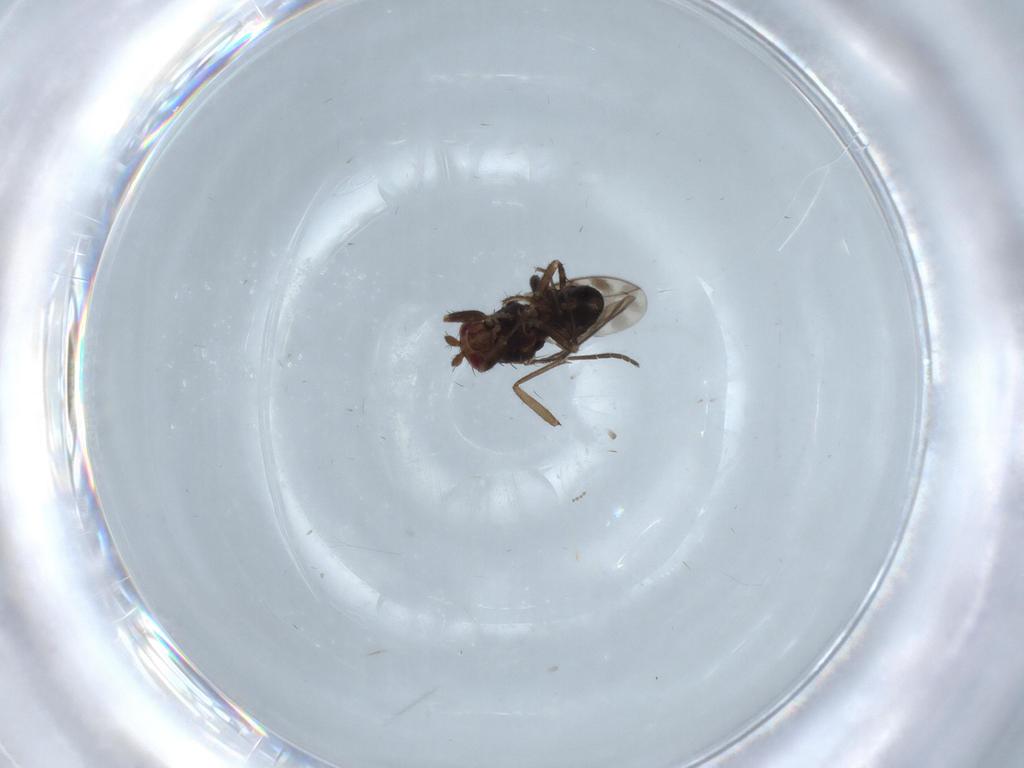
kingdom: Animalia
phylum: Arthropoda
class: Insecta
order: Diptera
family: Sphaeroceridae
